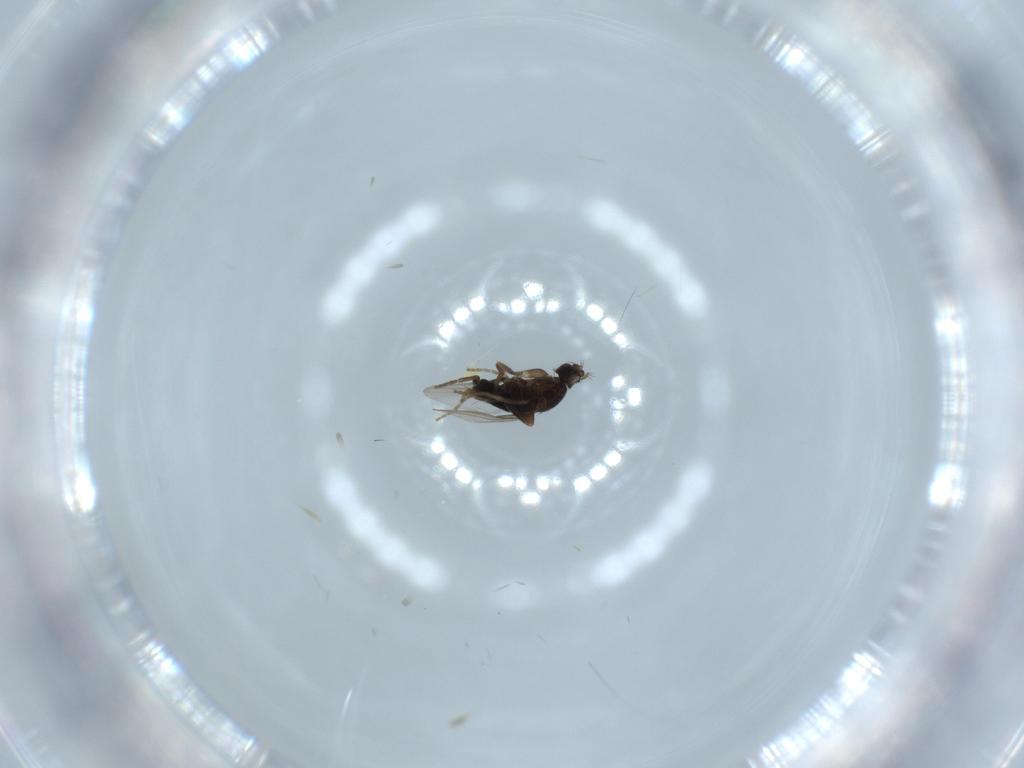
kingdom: Animalia
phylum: Arthropoda
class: Insecta
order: Diptera
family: Phoridae
